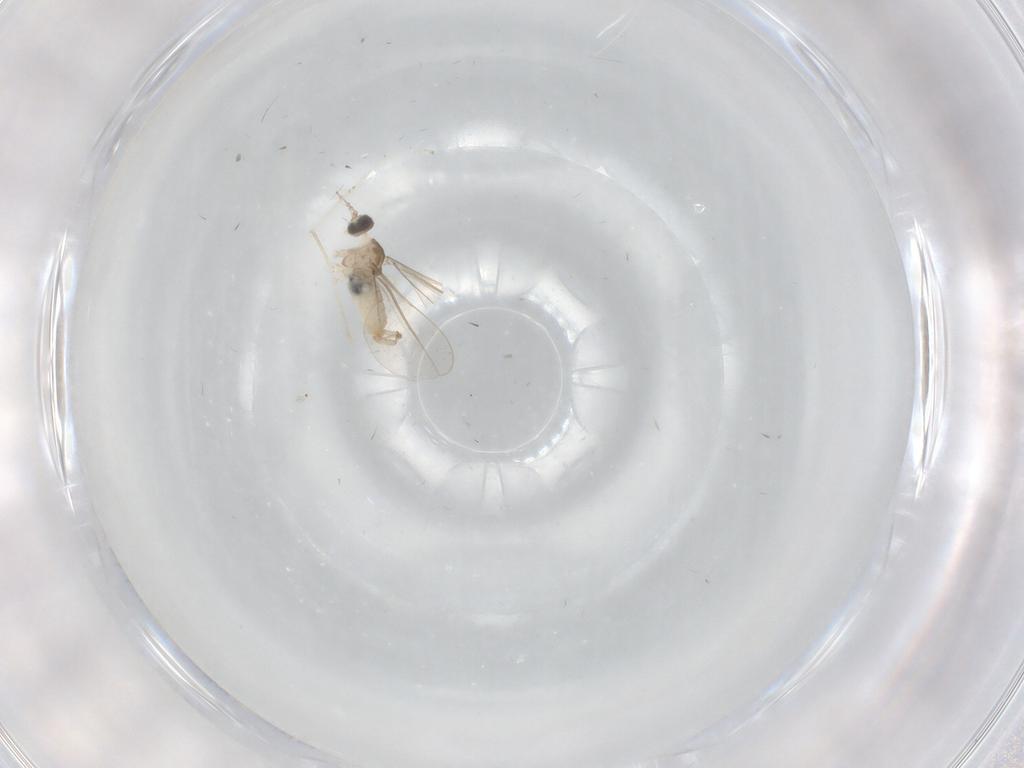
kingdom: Animalia
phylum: Arthropoda
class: Insecta
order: Diptera
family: Cecidomyiidae
